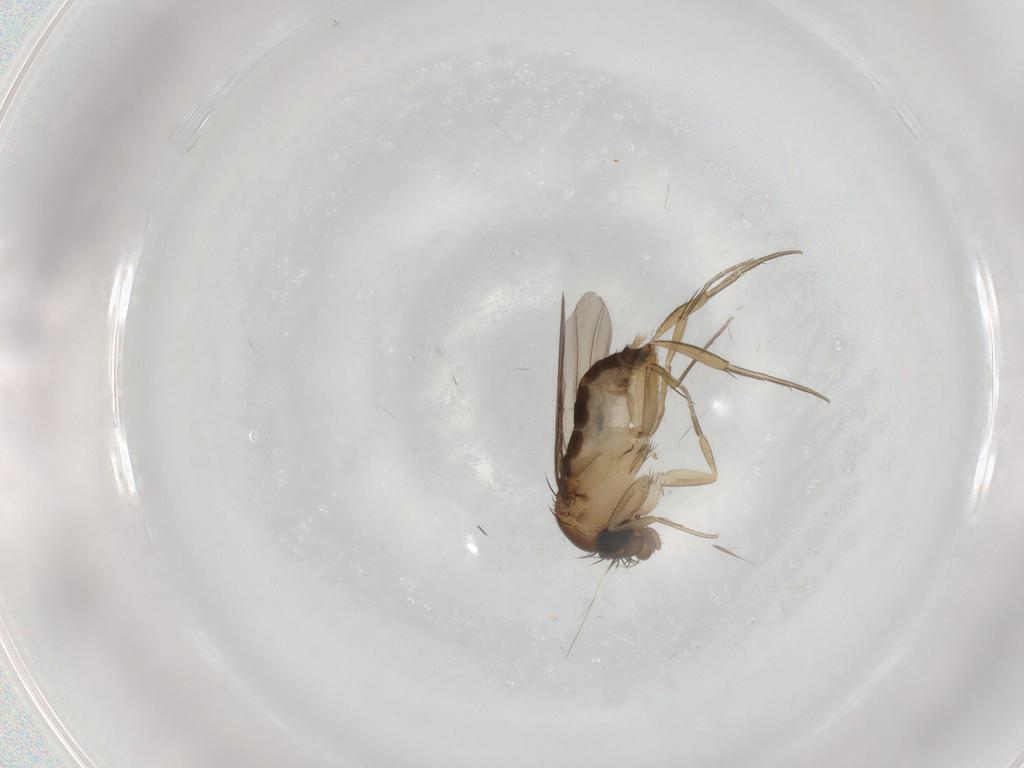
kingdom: Animalia
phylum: Arthropoda
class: Insecta
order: Diptera
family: Phoridae
